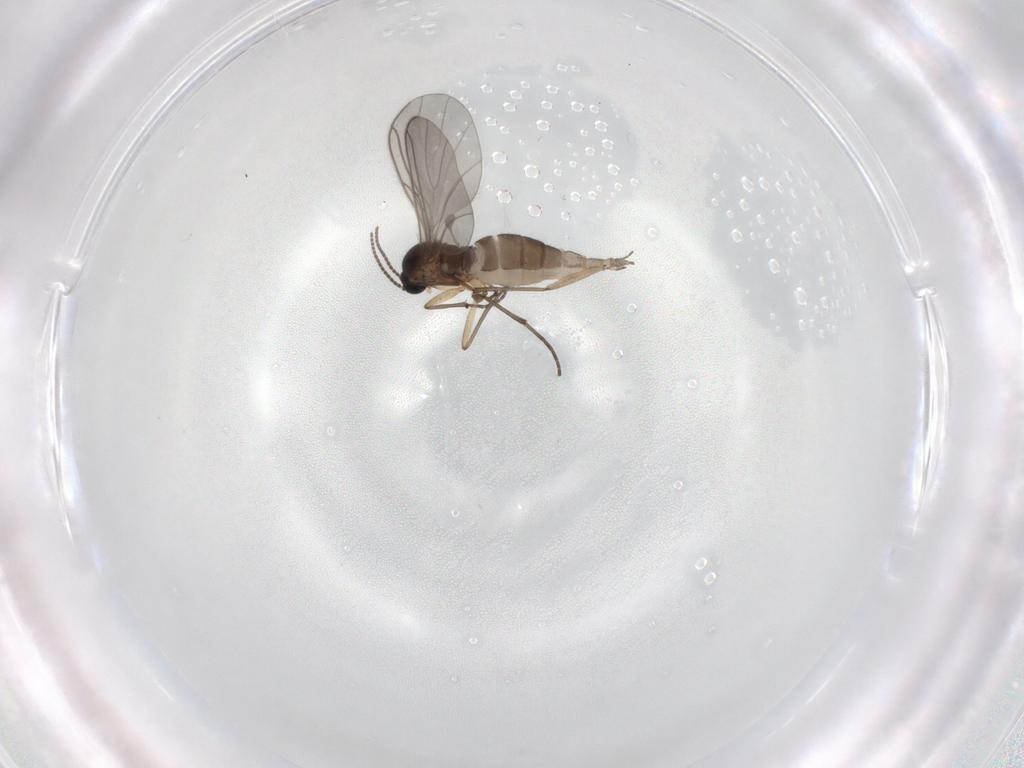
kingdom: Animalia
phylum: Arthropoda
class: Insecta
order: Diptera
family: Sciaridae
